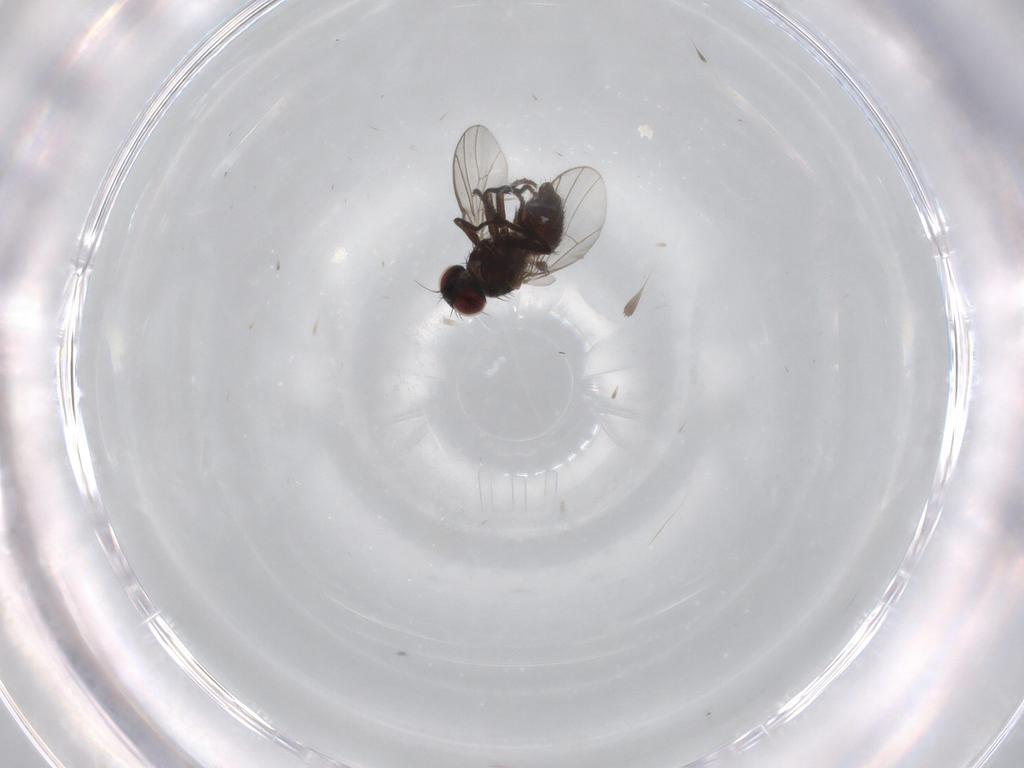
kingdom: Animalia
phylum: Arthropoda
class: Insecta
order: Diptera
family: Agromyzidae
